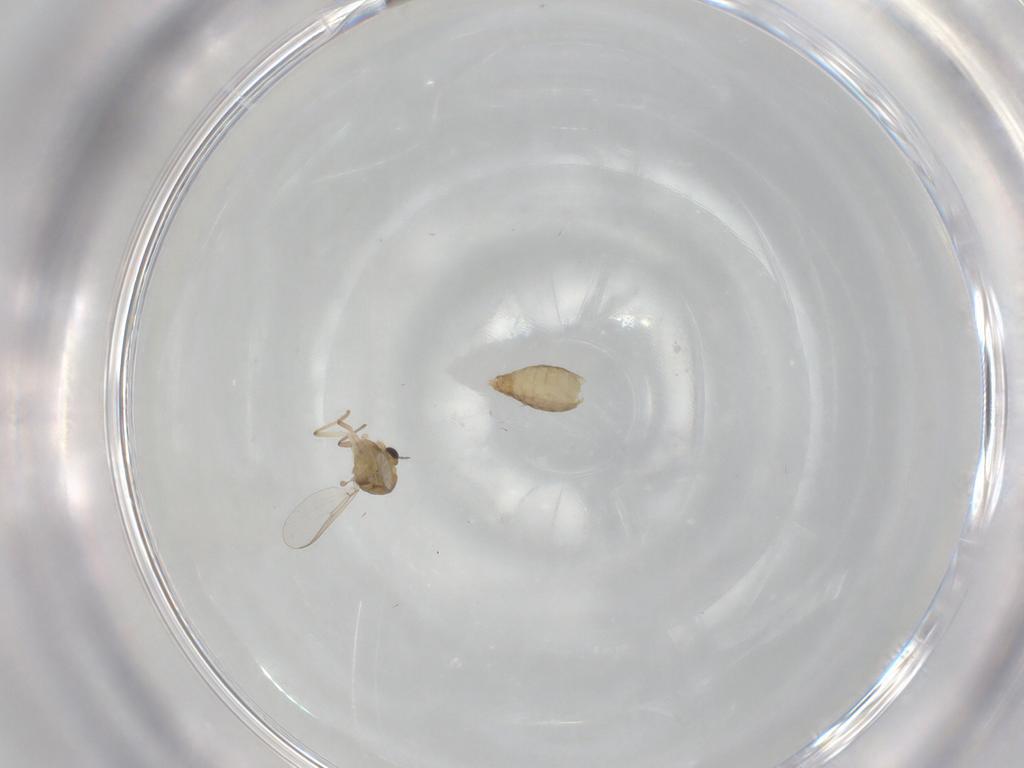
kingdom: Animalia
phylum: Arthropoda
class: Insecta
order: Diptera
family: Chironomidae
